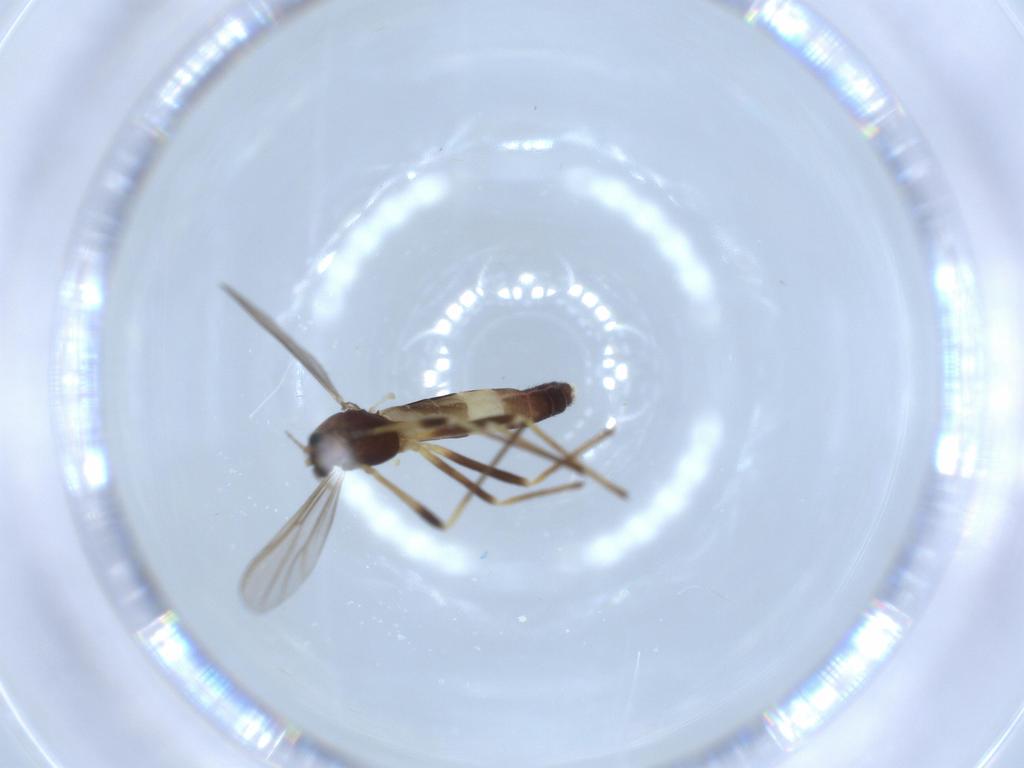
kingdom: Animalia
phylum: Arthropoda
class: Insecta
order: Diptera
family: Chironomidae
